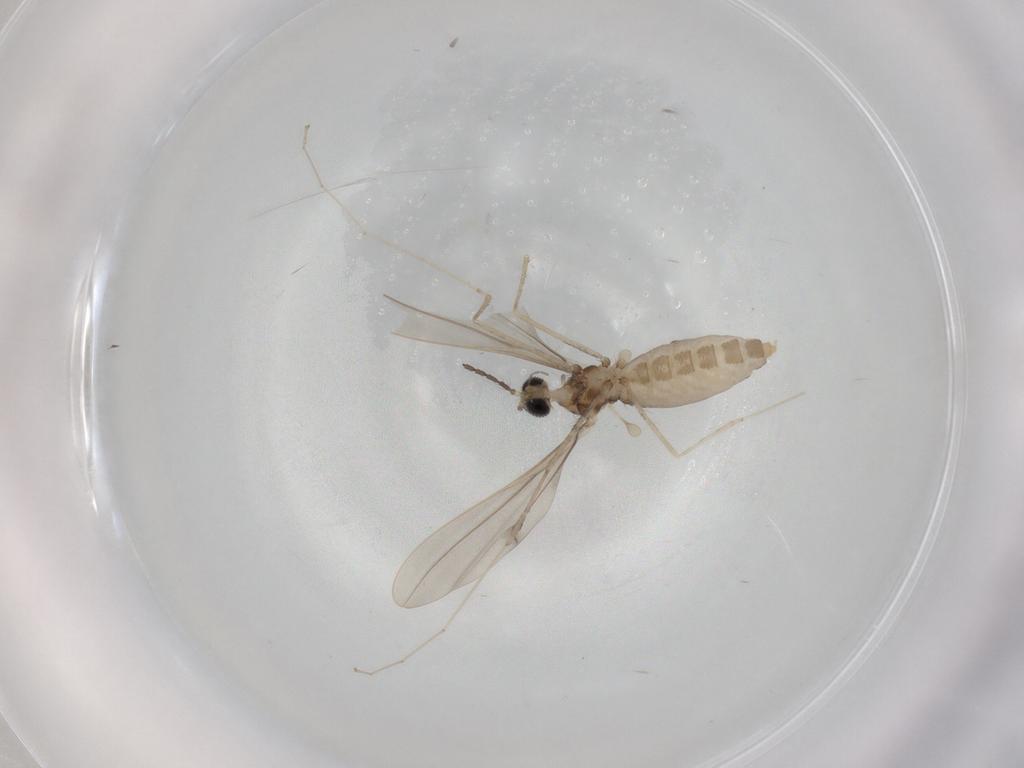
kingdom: Animalia
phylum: Arthropoda
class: Insecta
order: Diptera
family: Cecidomyiidae
